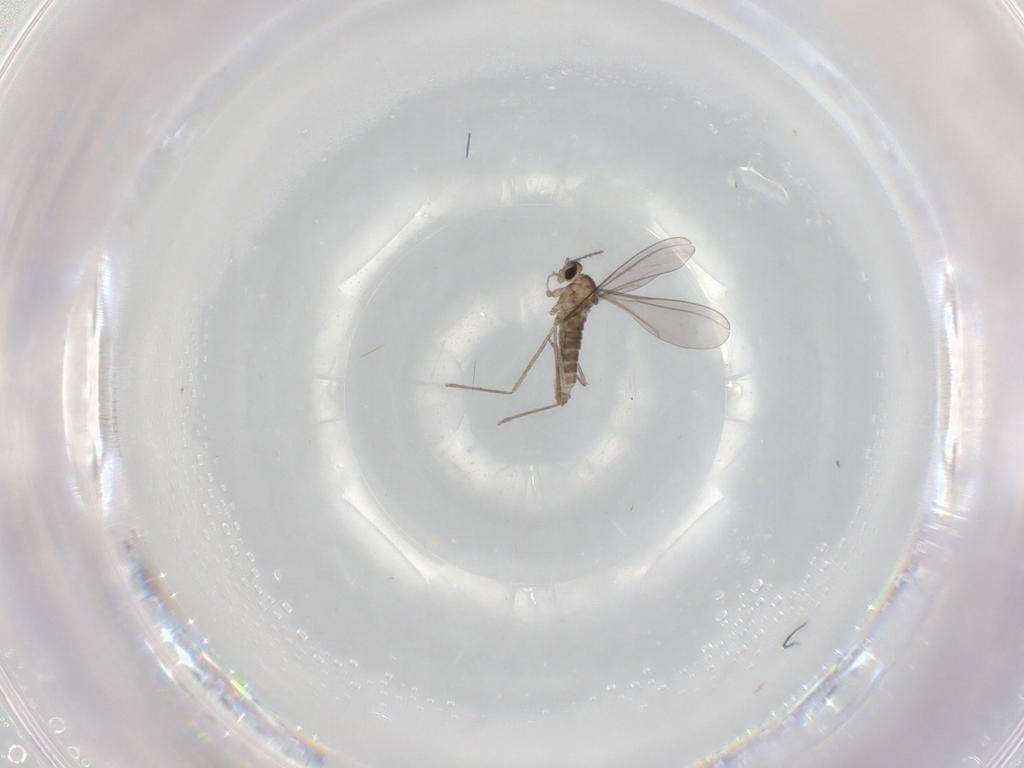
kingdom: Animalia
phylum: Arthropoda
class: Insecta
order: Diptera
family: Cecidomyiidae
